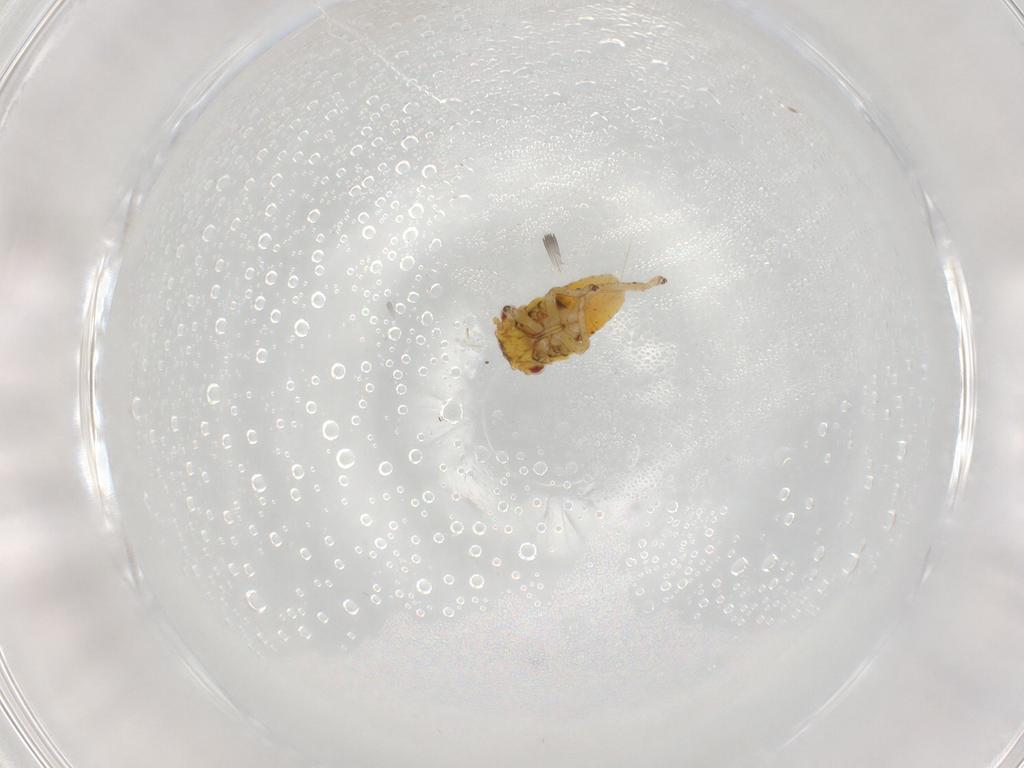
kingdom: Animalia
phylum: Arthropoda
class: Insecta
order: Hemiptera
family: Cicadellidae
